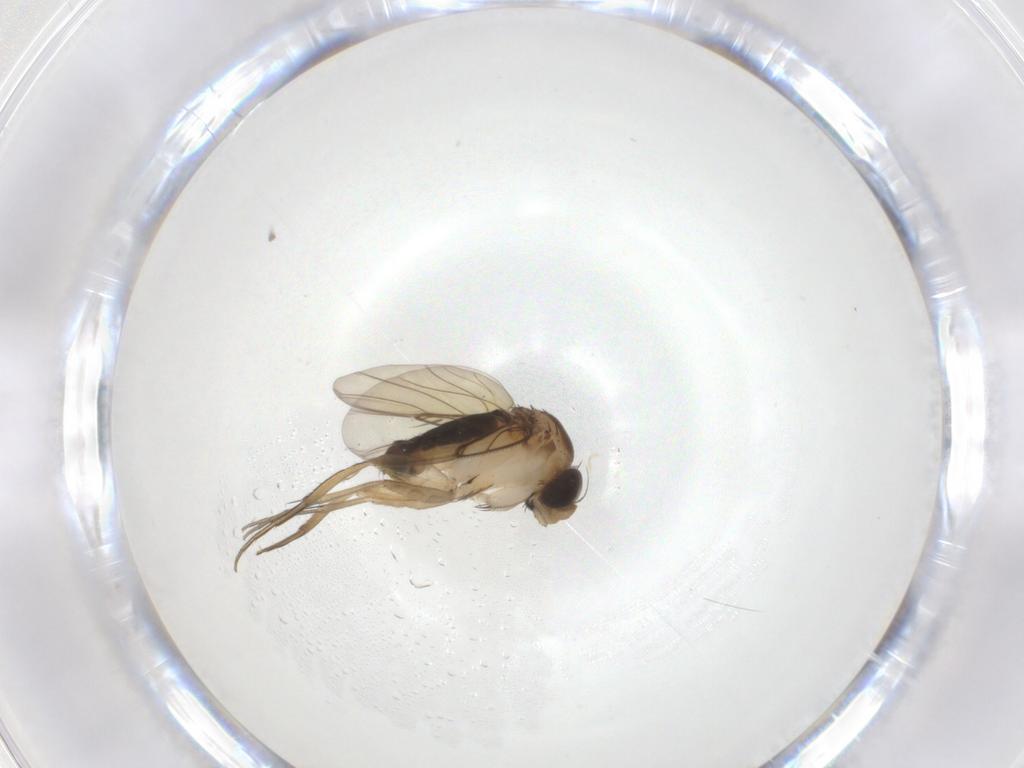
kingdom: Animalia
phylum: Arthropoda
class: Insecta
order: Diptera
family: Phoridae
